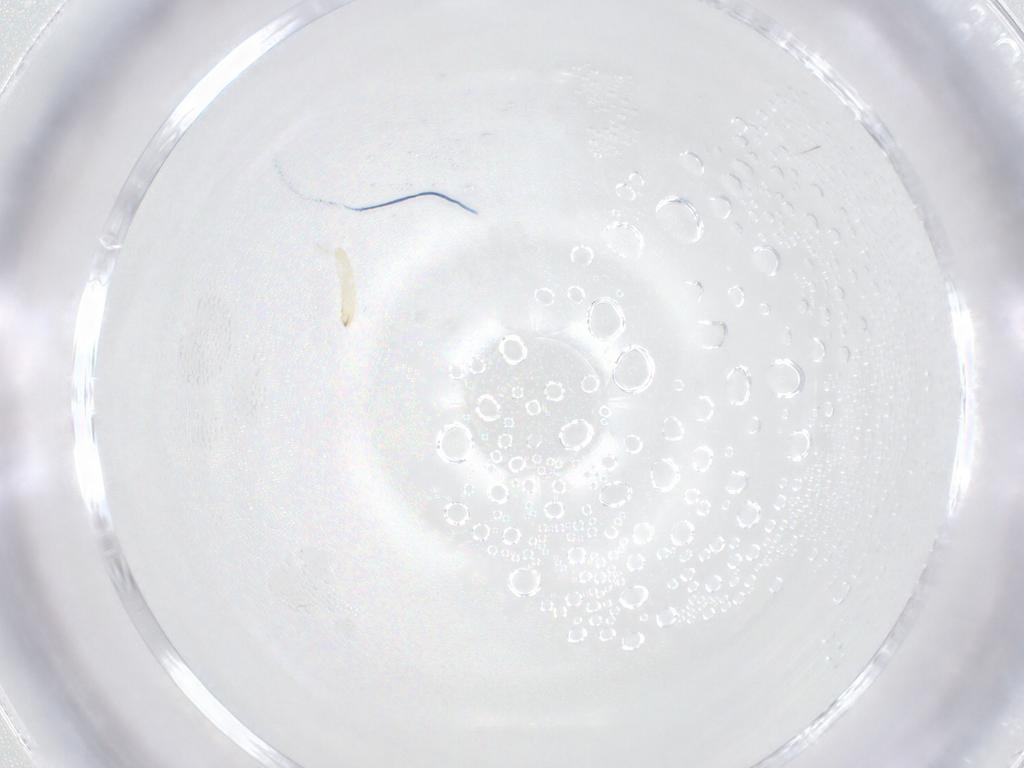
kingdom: Animalia
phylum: Arthropoda
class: Insecta
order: Diptera
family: Tachinidae
